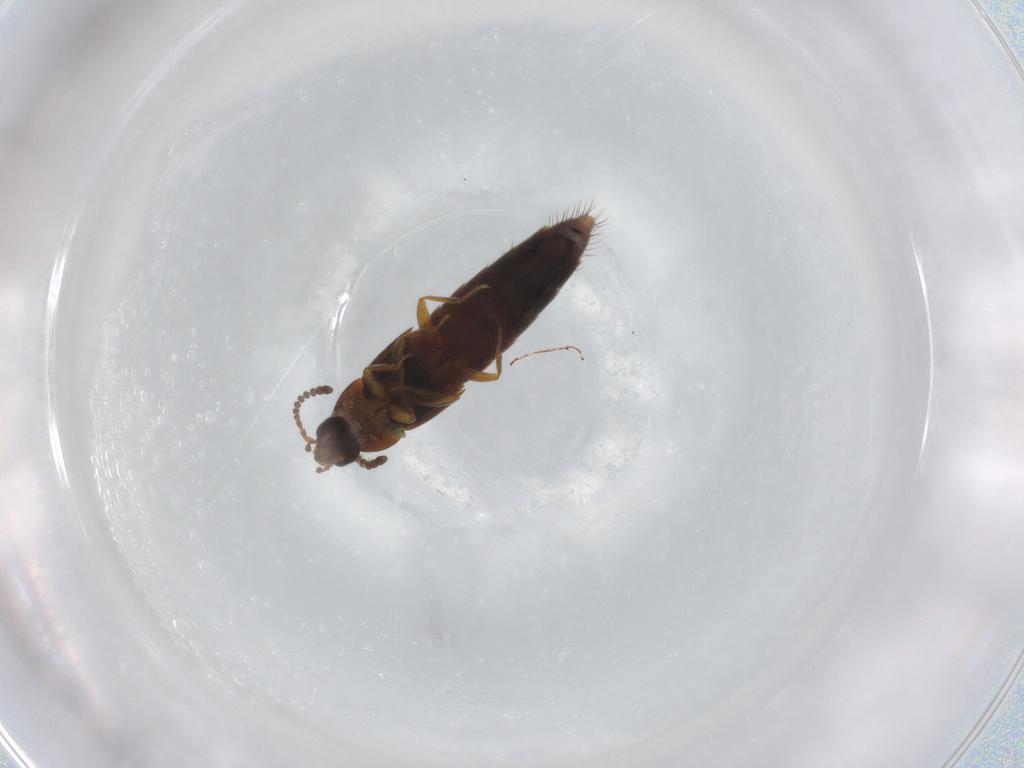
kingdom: Animalia
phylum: Arthropoda
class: Insecta
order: Coleoptera
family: Staphylinidae
